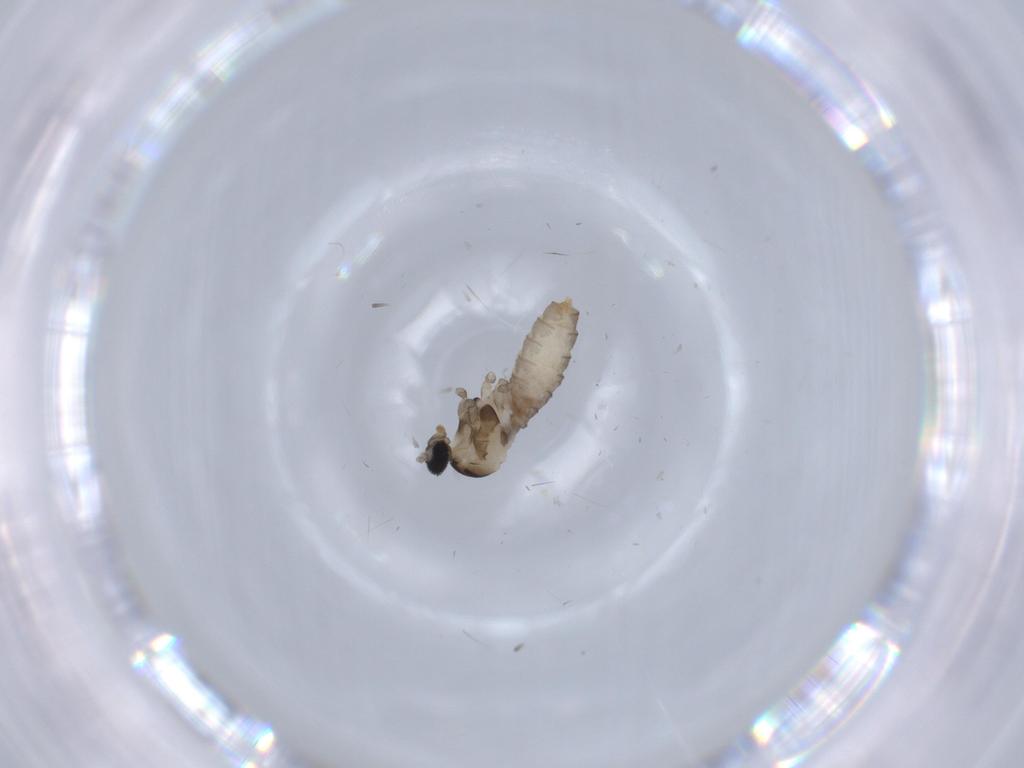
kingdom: Animalia
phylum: Arthropoda
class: Insecta
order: Diptera
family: Cecidomyiidae
